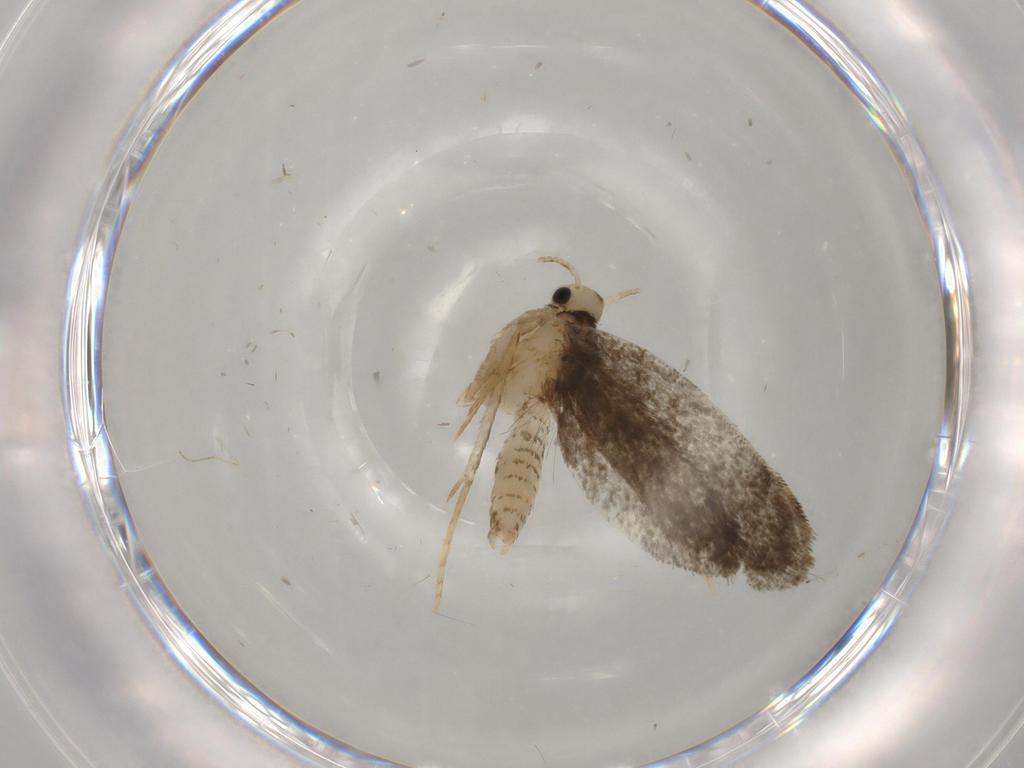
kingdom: Animalia
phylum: Arthropoda
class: Insecta
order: Lepidoptera
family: Psychidae
